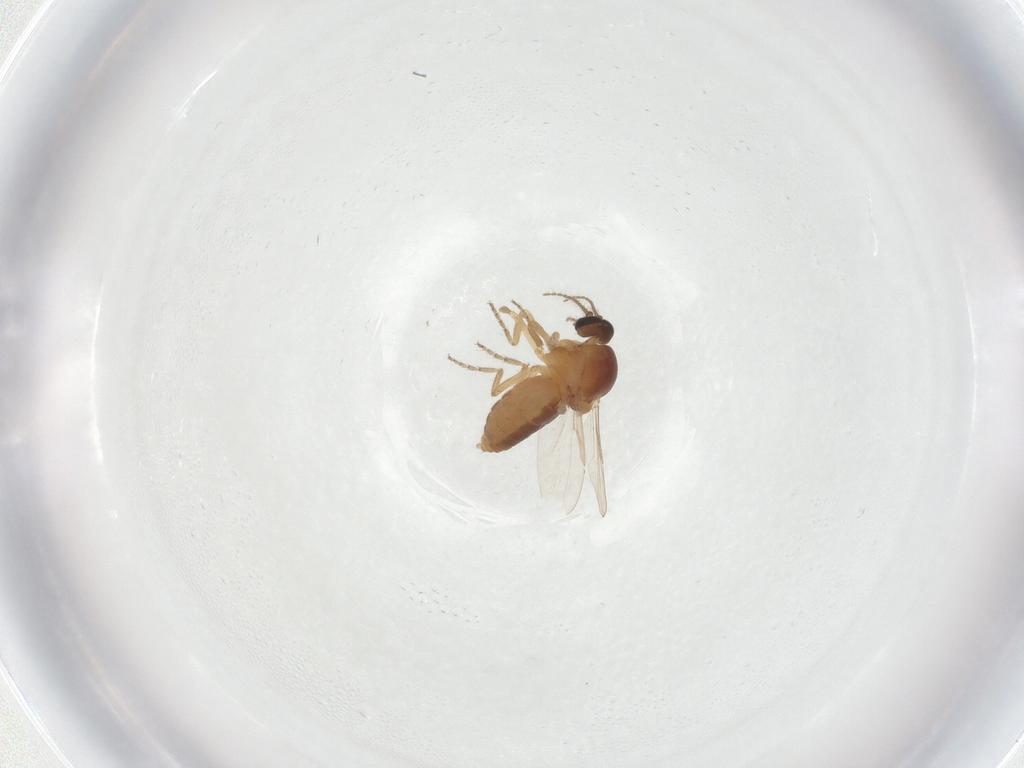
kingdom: Animalia
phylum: Arthropoda
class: Insecta
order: Diptera
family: Ceratopogonidae
